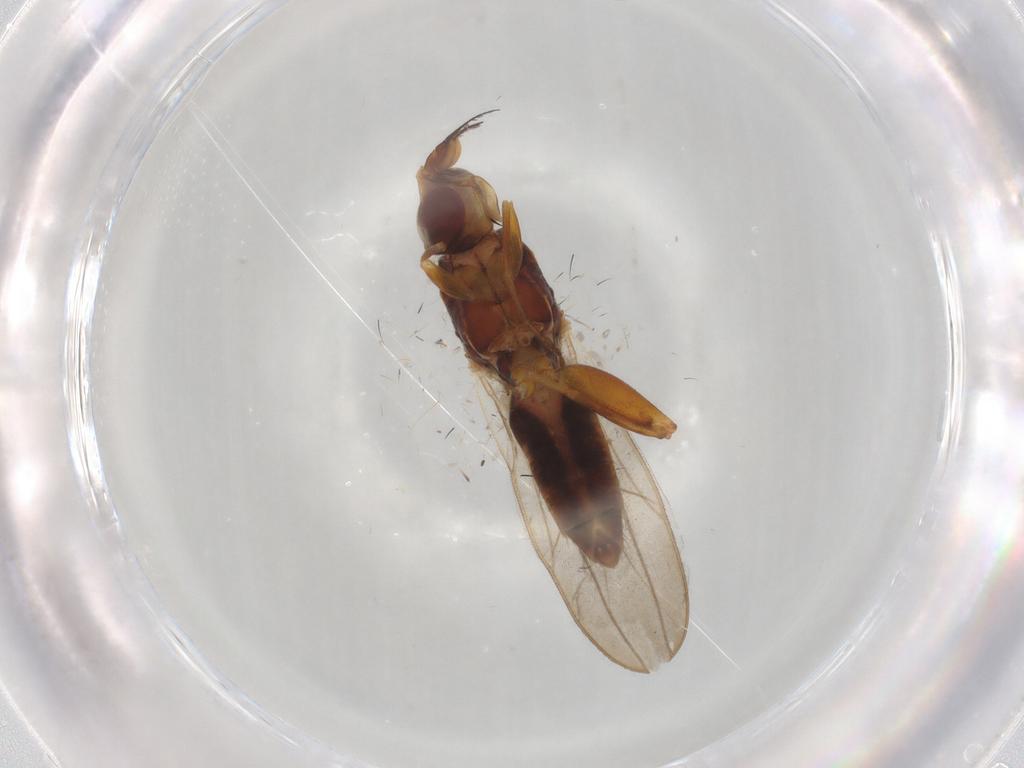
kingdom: Animalia
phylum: Arthropoda
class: Insecta
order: Diptera
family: Chloropidae
